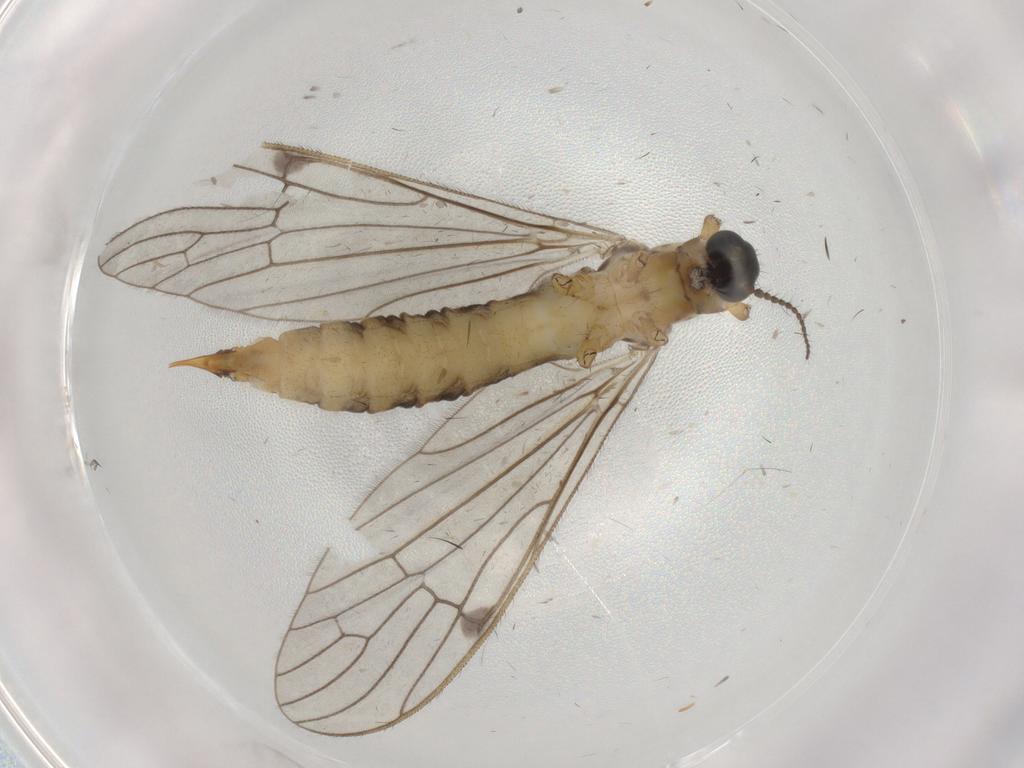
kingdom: Animalia
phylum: Arthropoda
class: Insecta
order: Diptera
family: Limoniidae
